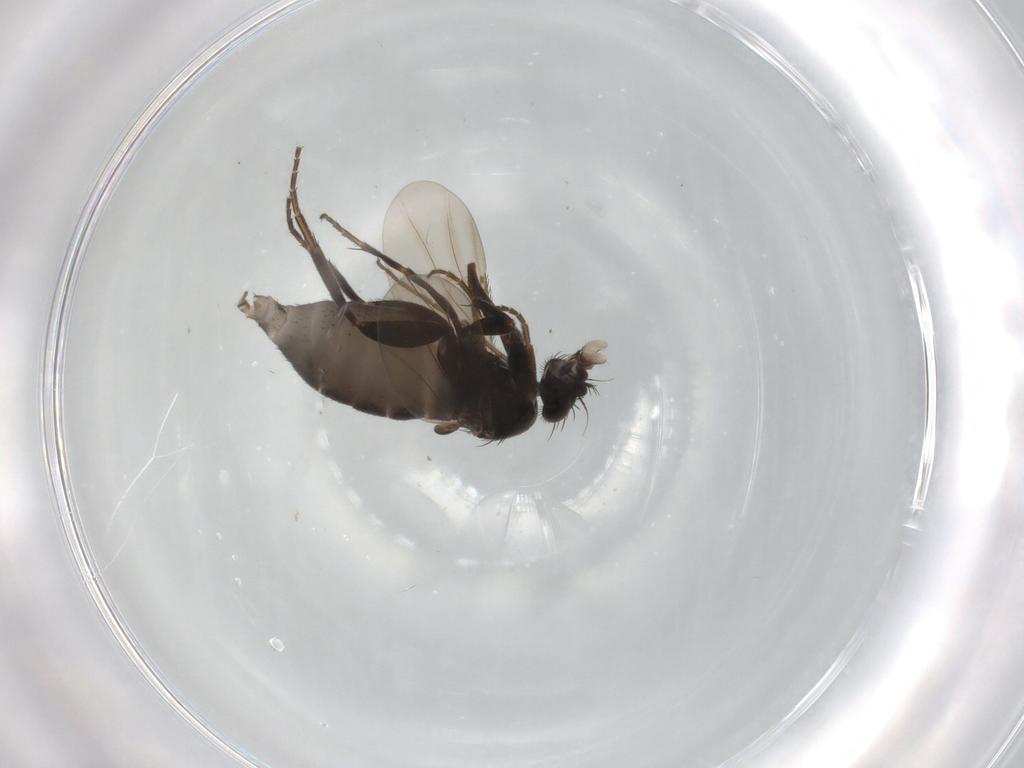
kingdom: Animalia
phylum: Arthropoda
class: Insecta
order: Diptera
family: Phoridae
